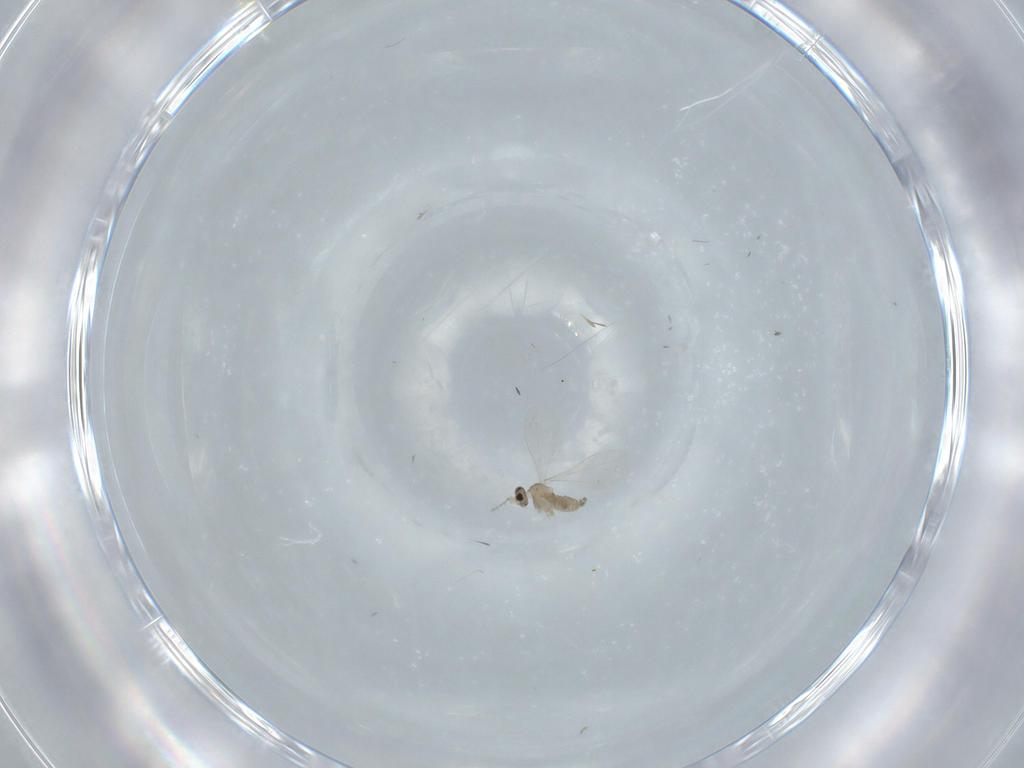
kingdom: Animalia
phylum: Arthropoda
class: Insecta
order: Diptera
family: Cecidomyiidae
